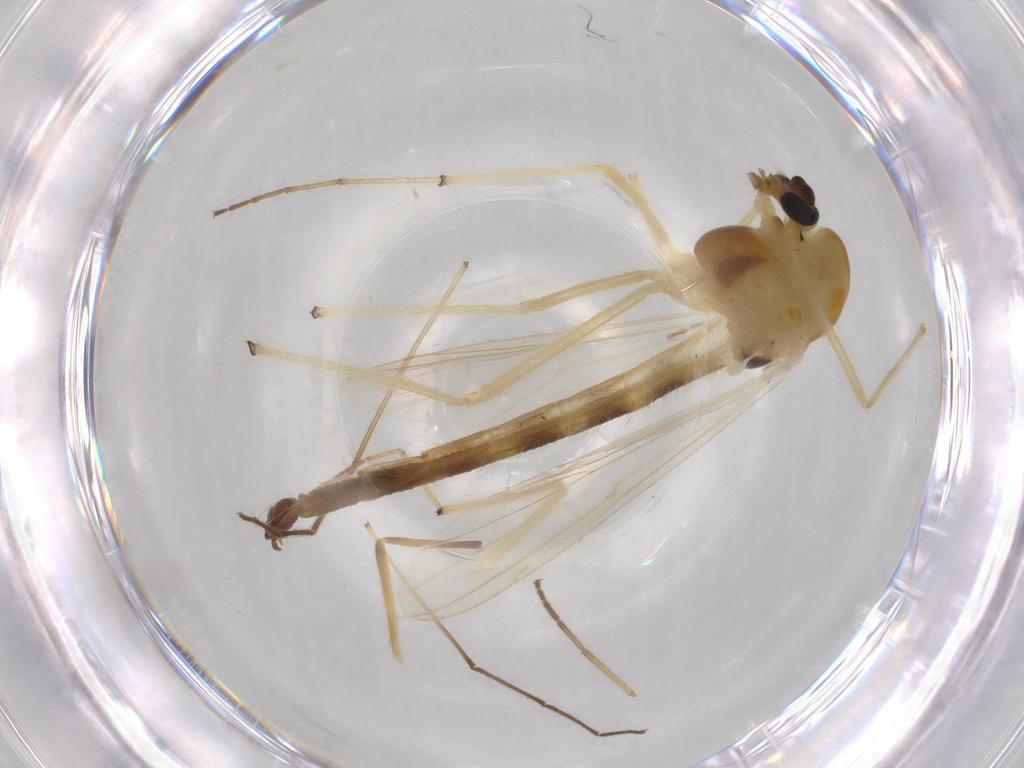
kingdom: Animalia
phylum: Arthropoda
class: Insecta
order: Diptera
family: Chironomidae
